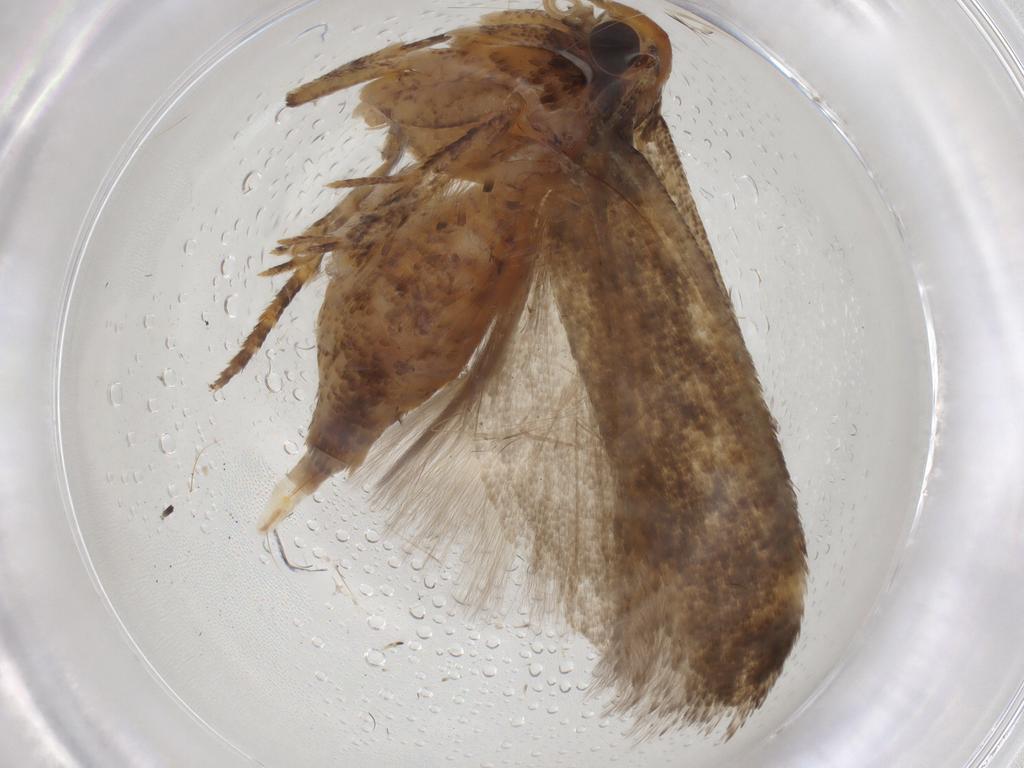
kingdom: Animalia
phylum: Arthropoda
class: Insecta
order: Lepidoptera
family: Gelechiidae
